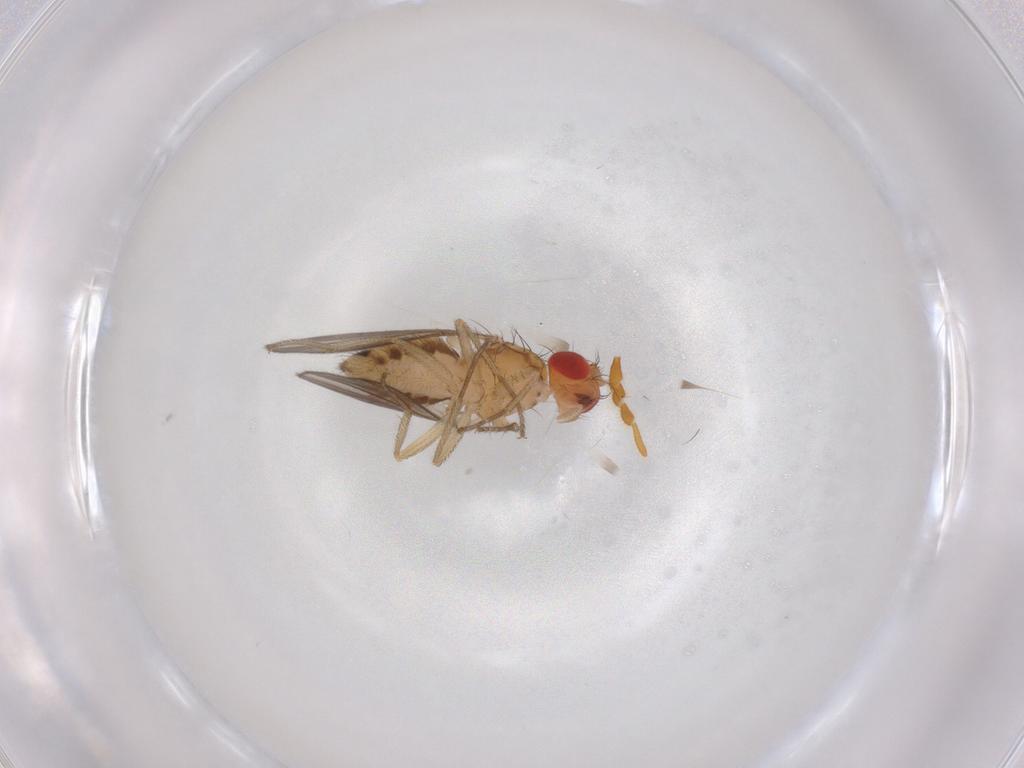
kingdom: Animalia
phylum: Arthropoda
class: Insecta
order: Diptera
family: Drosophilidae
